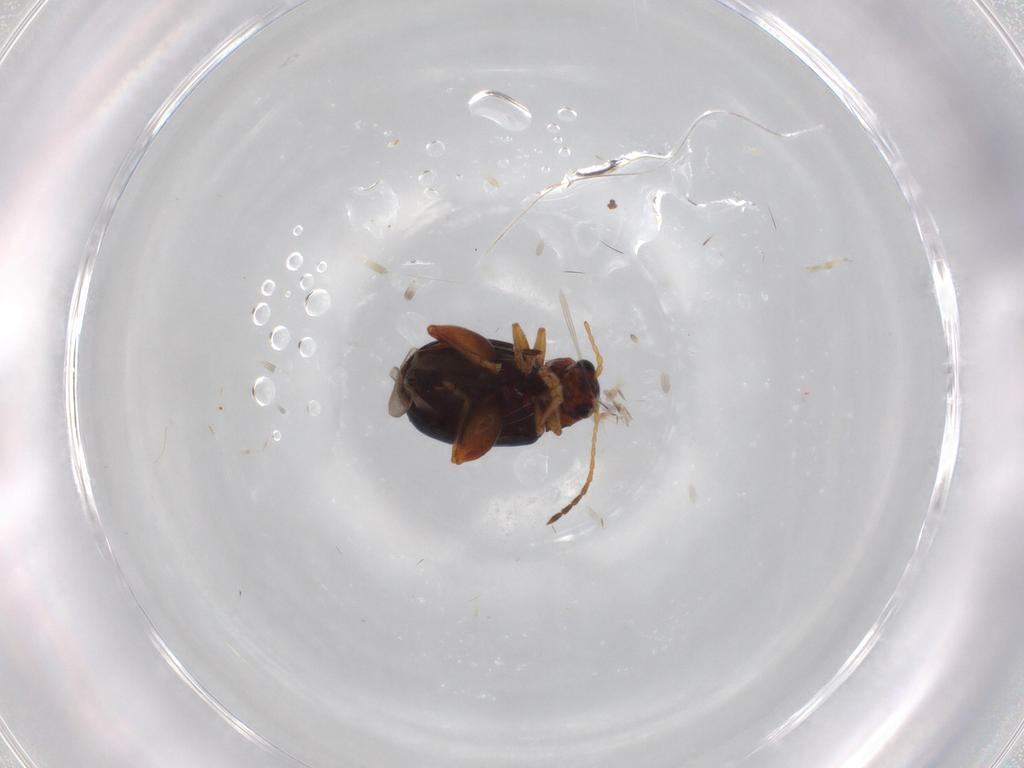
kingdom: Animalia
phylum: Arthropoda
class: Insecta
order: Coleoptera
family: Chrysomelidae
